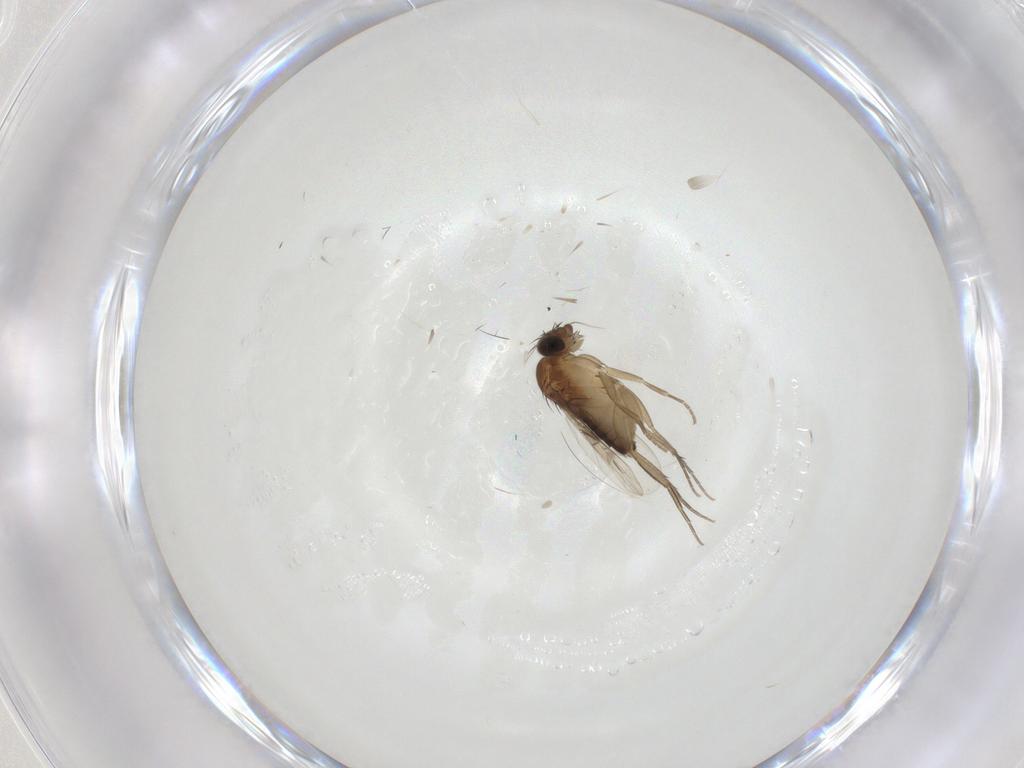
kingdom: Animalia
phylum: Arthropoda
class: Insecta
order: Diptera
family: Phoridae
